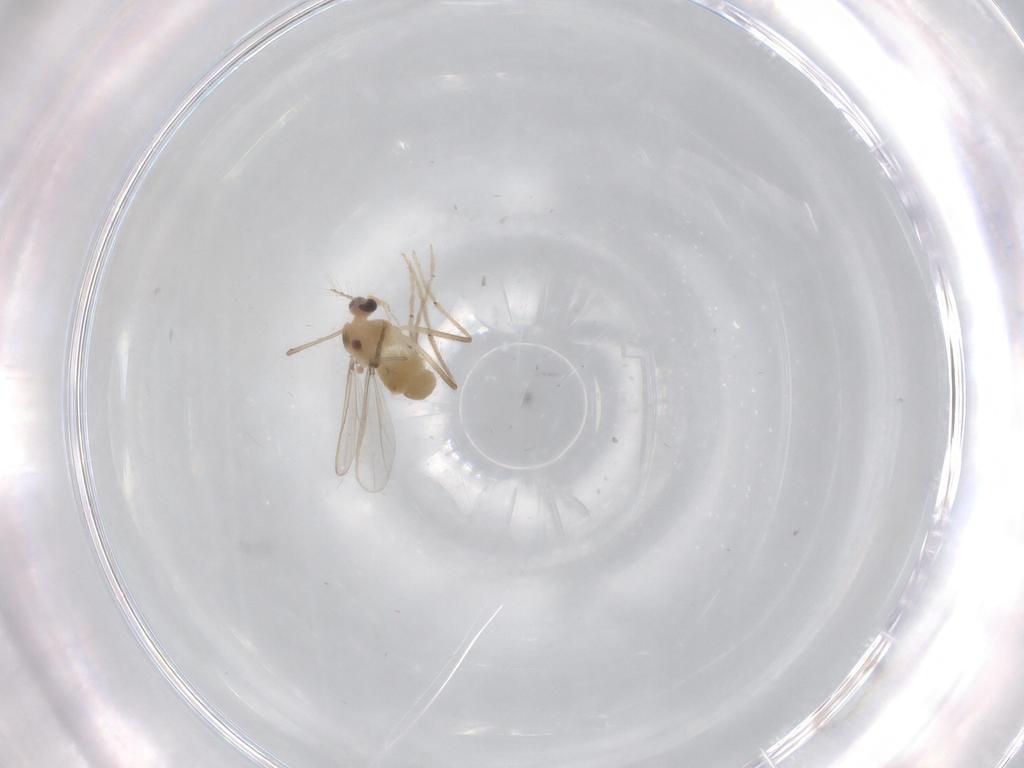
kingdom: Animalia
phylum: Arthropoda
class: Insecta
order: Diptera
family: Chironomidae
